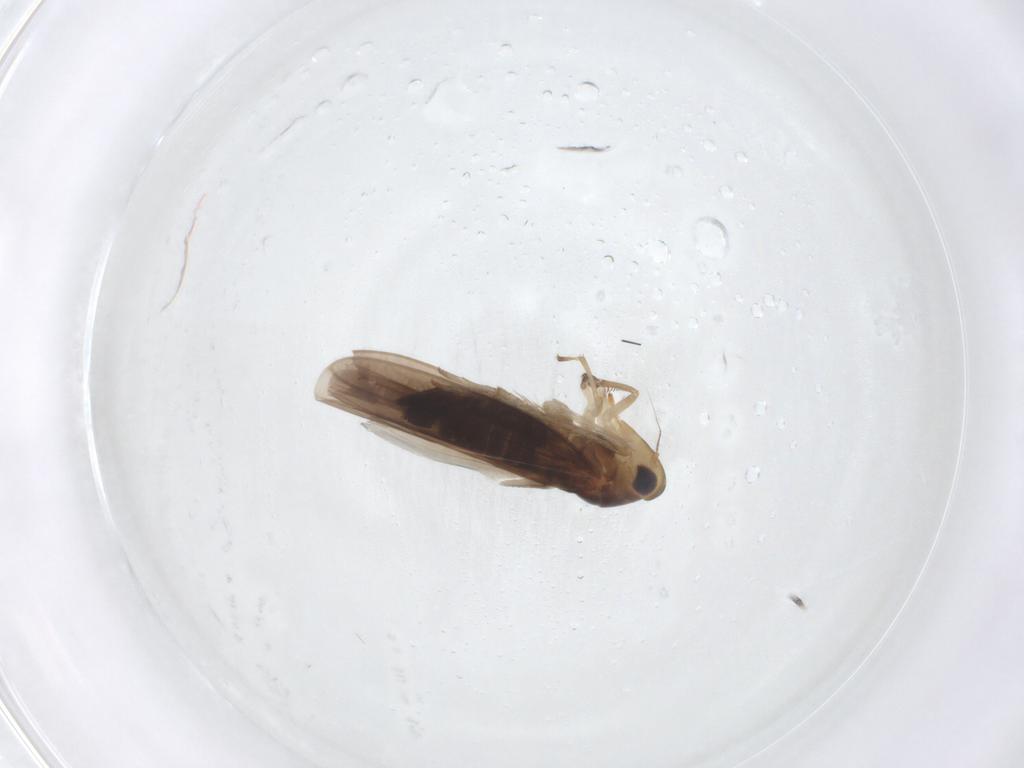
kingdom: Animalia
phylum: Arthropoda
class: Insecta
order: Hemiptera
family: Cicadellidae
